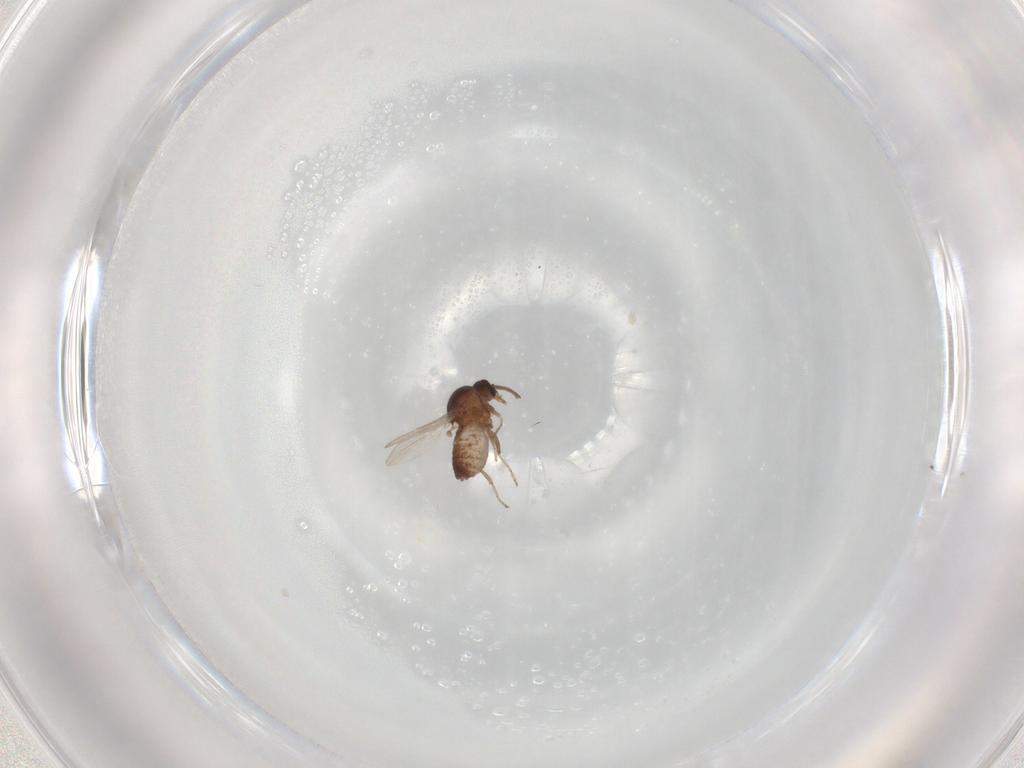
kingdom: Animalia
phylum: Arthropoda
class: Insecta
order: Diptera
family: Ceratopogonidae
